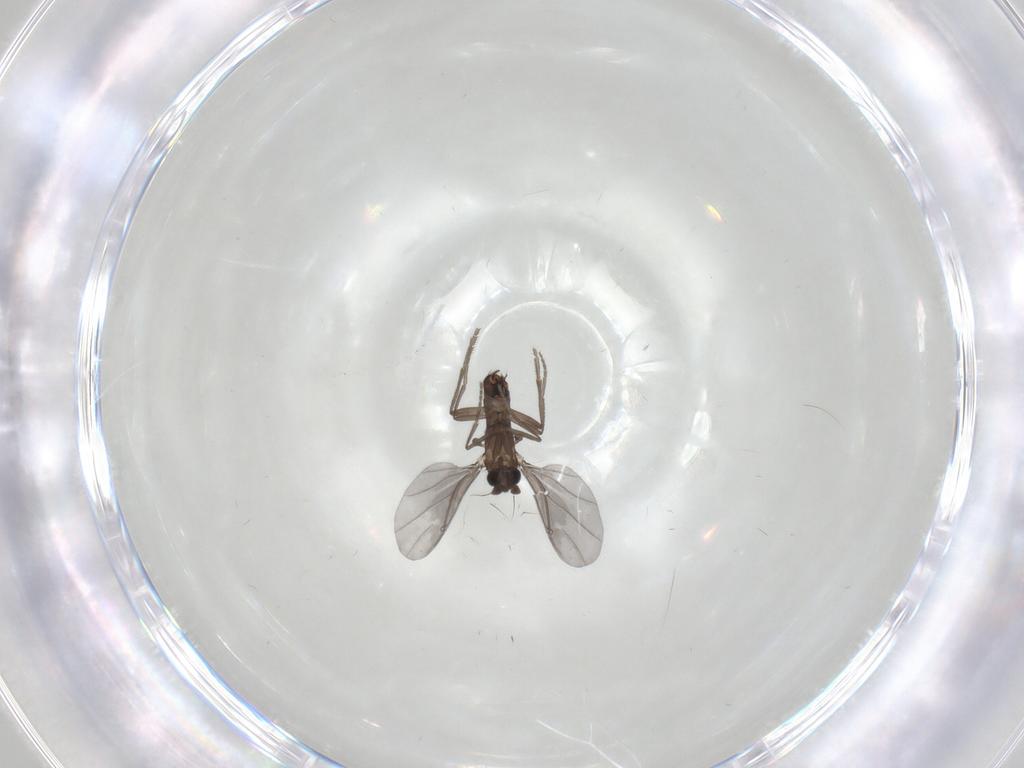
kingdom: Animalia
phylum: Arthropoda
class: Insecta
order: Diptera
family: Phoridae
